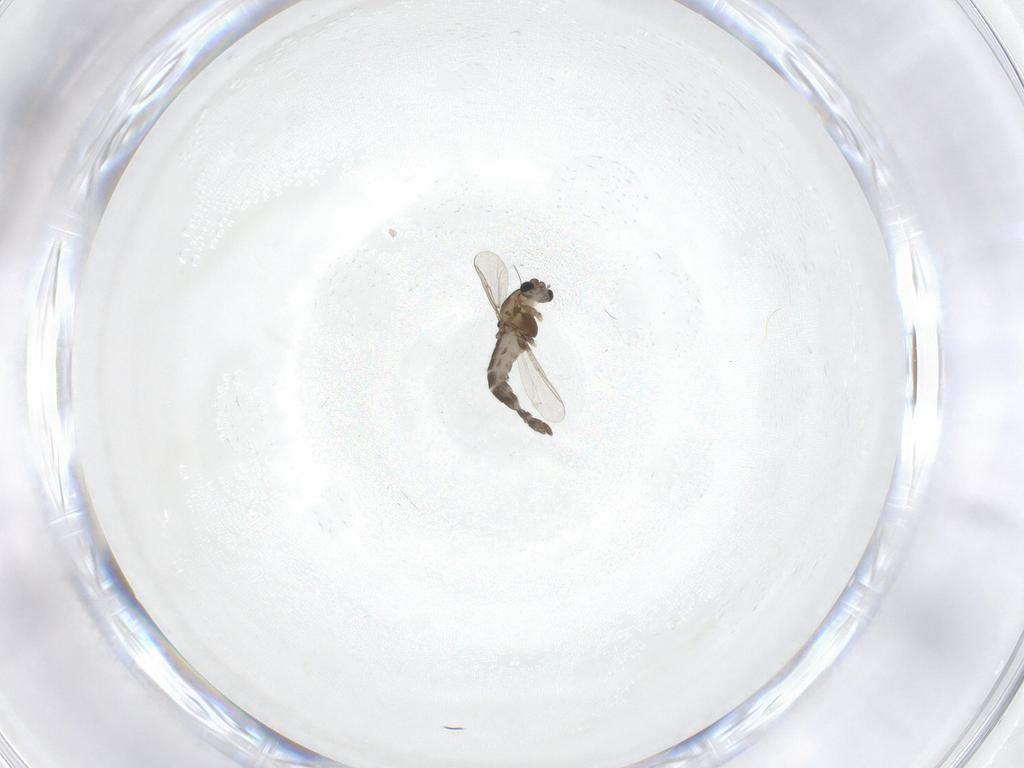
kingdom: Animalia
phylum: Arthropoda
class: Insecta
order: Diptera
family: Chironomidae
